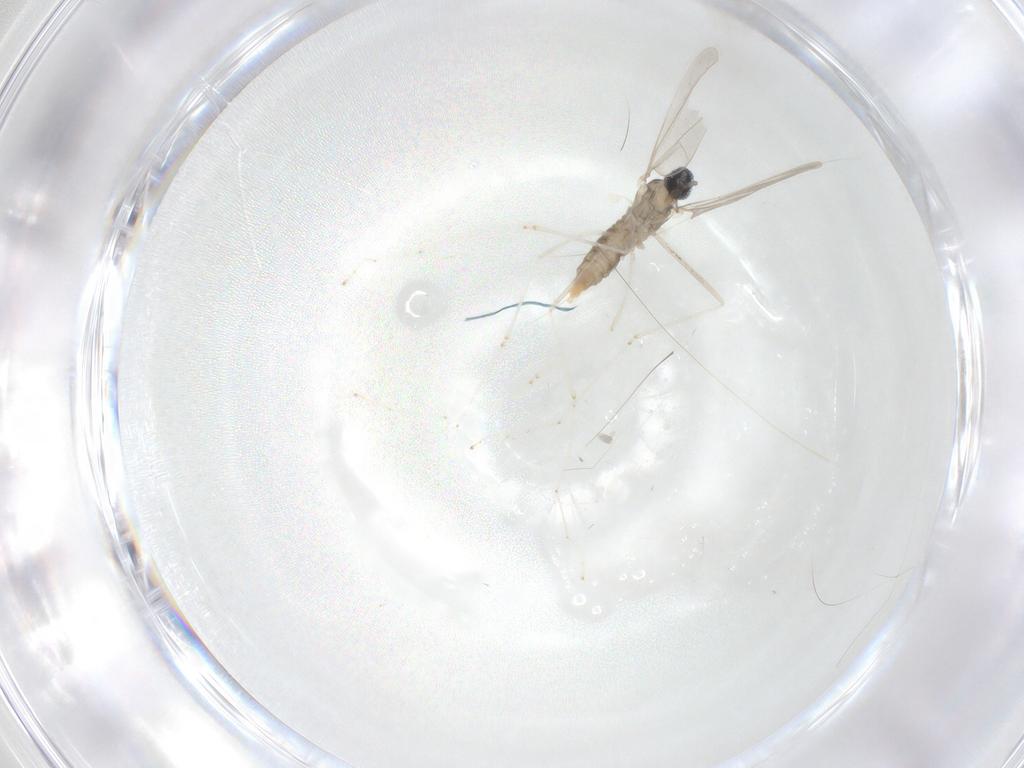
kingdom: Animalia
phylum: Arthropoda
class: Insecta
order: Diptera
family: Cecidomyiidae
